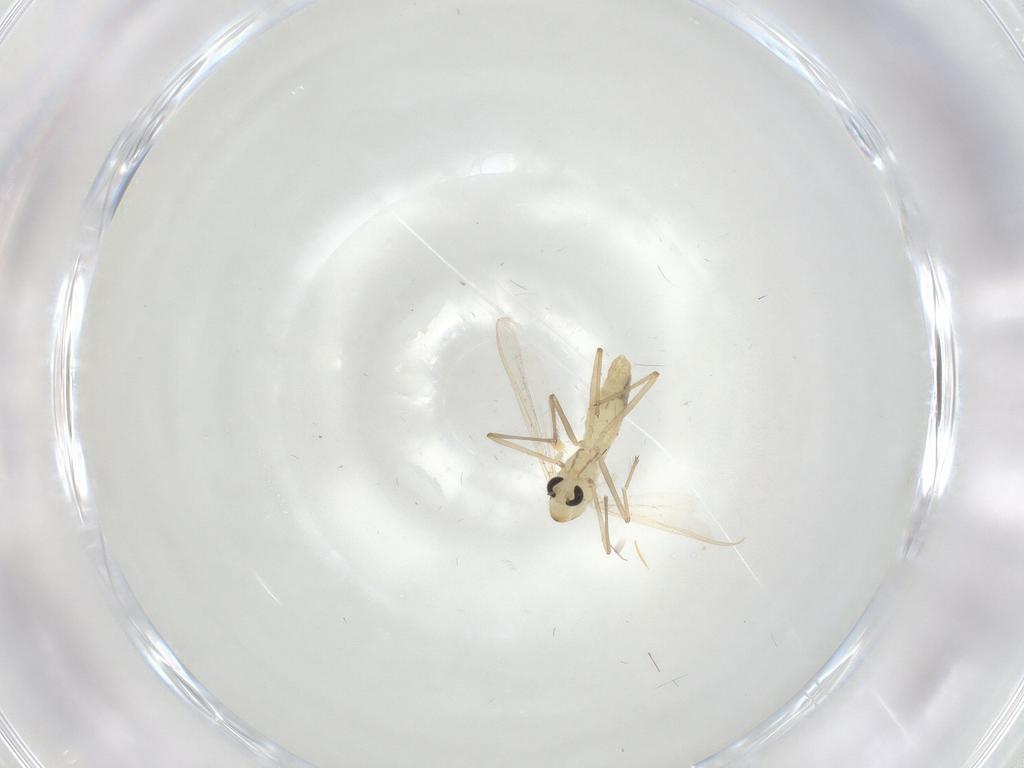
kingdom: Animalia
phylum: Arthropoda
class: Insecta
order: Diptera
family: Chironomidae
